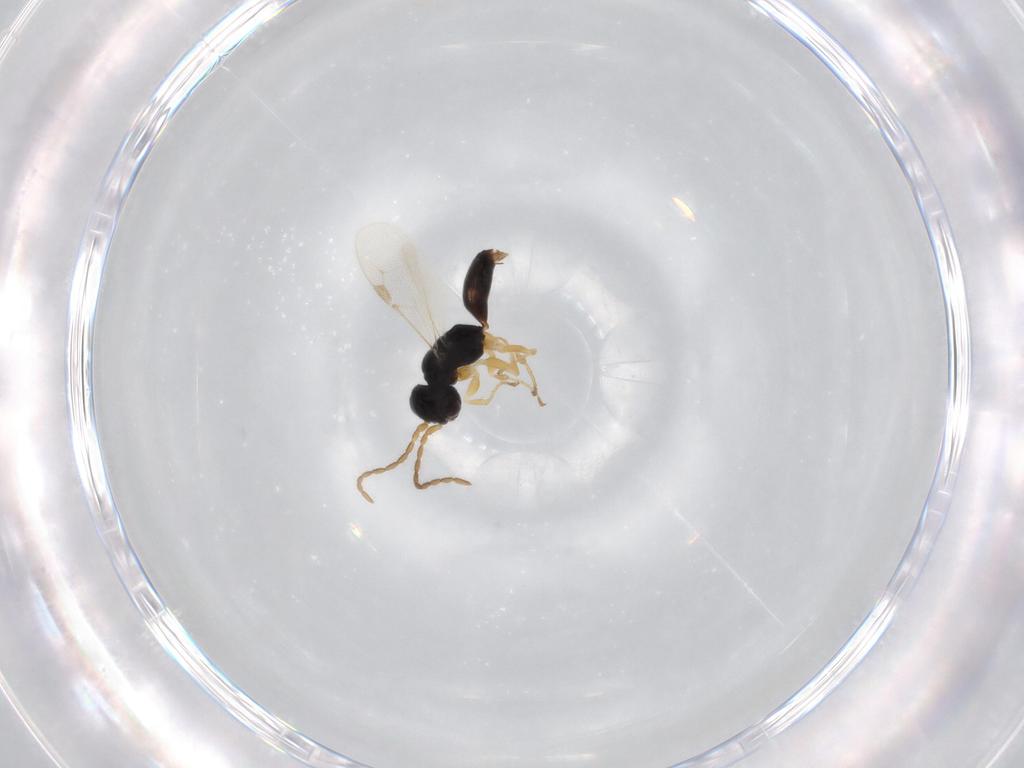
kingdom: Animalia
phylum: Arthropoda
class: Insecta
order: Hymenoptera
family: Dryinidae
